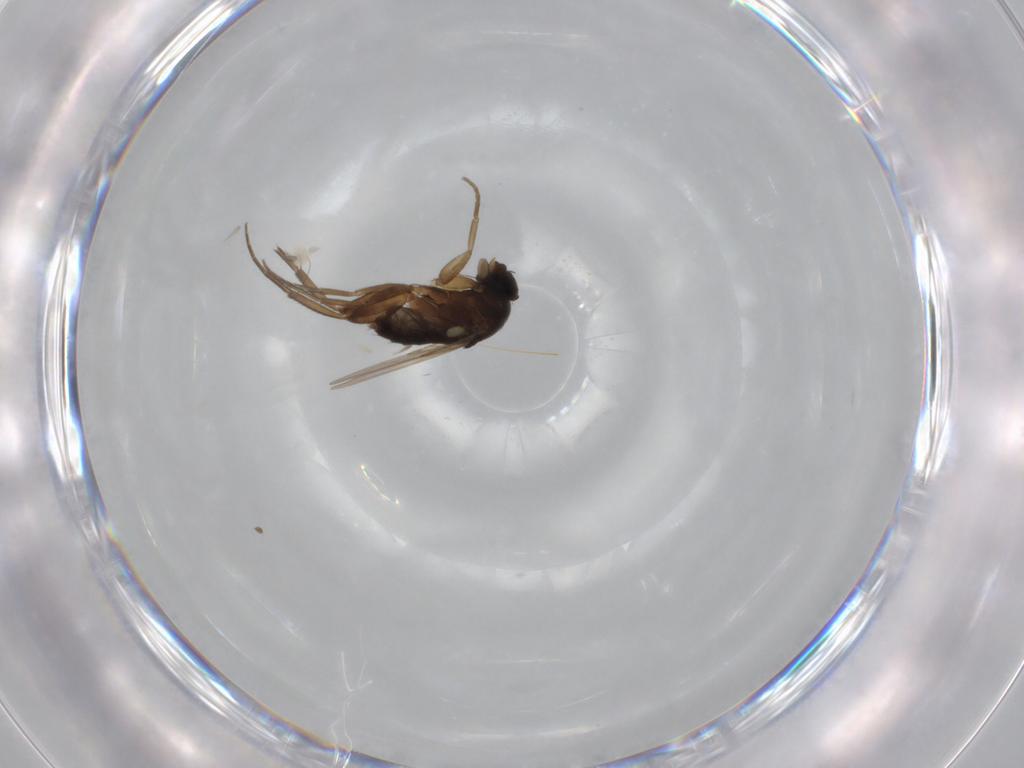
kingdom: Animalia
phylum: Arthropoda
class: Insecta
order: Diptera
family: Phoridae
